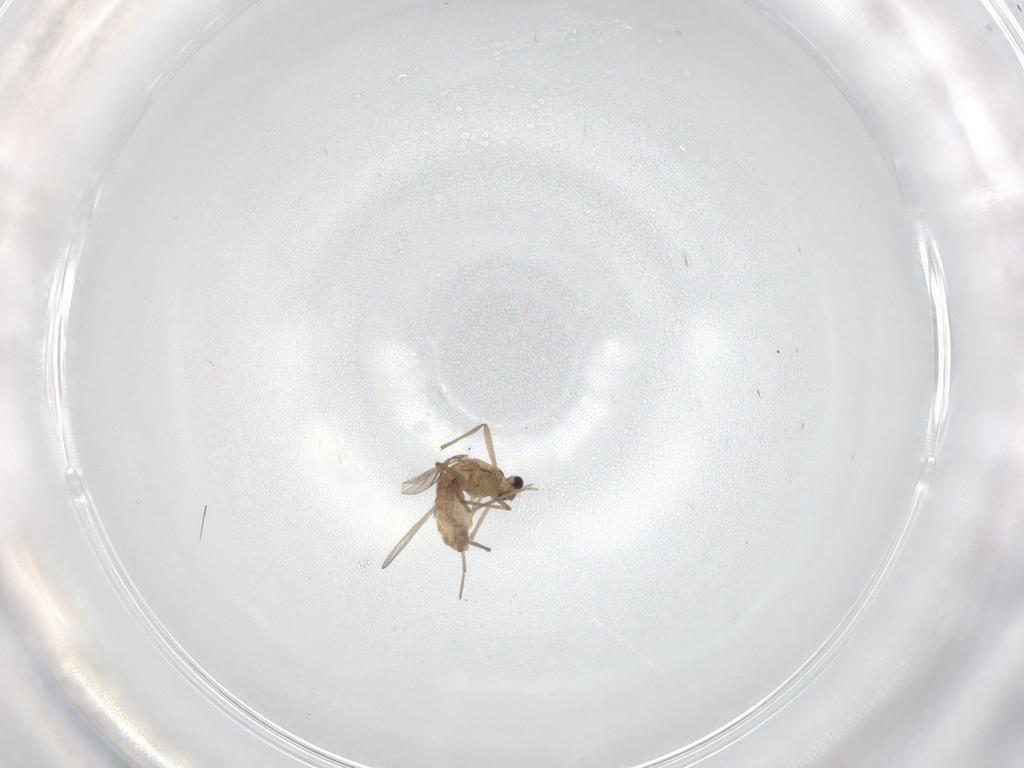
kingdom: Animalia
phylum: Arthropoda
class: Insecta
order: Diptera
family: Chironomidae
